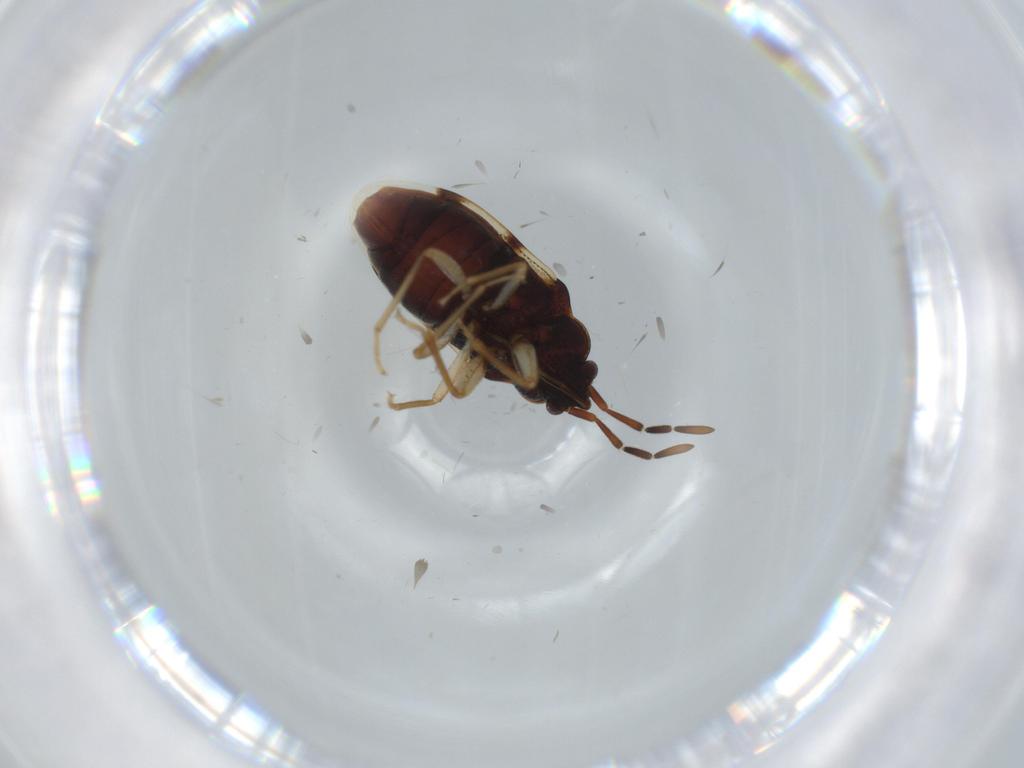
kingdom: Animalia
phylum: Arthropoda
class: Insecta
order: Hemiptera
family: Rhyparochromidae
